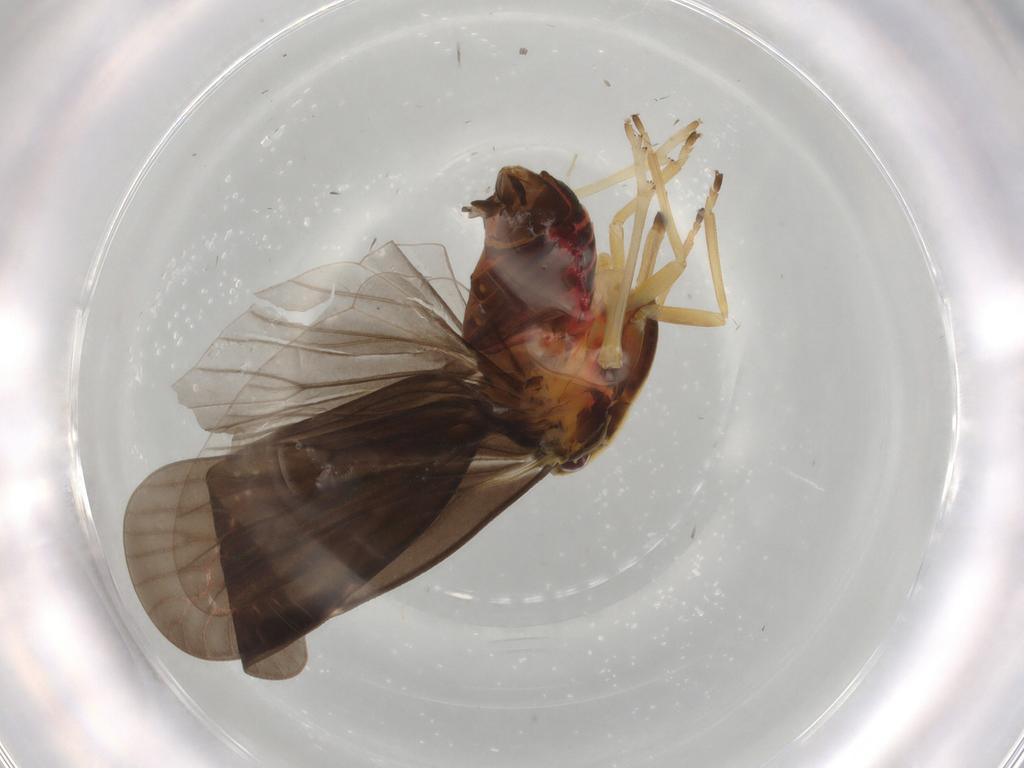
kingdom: Animalia
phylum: Arthropoda
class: Insecta
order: Hemiptera
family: Derbidae
